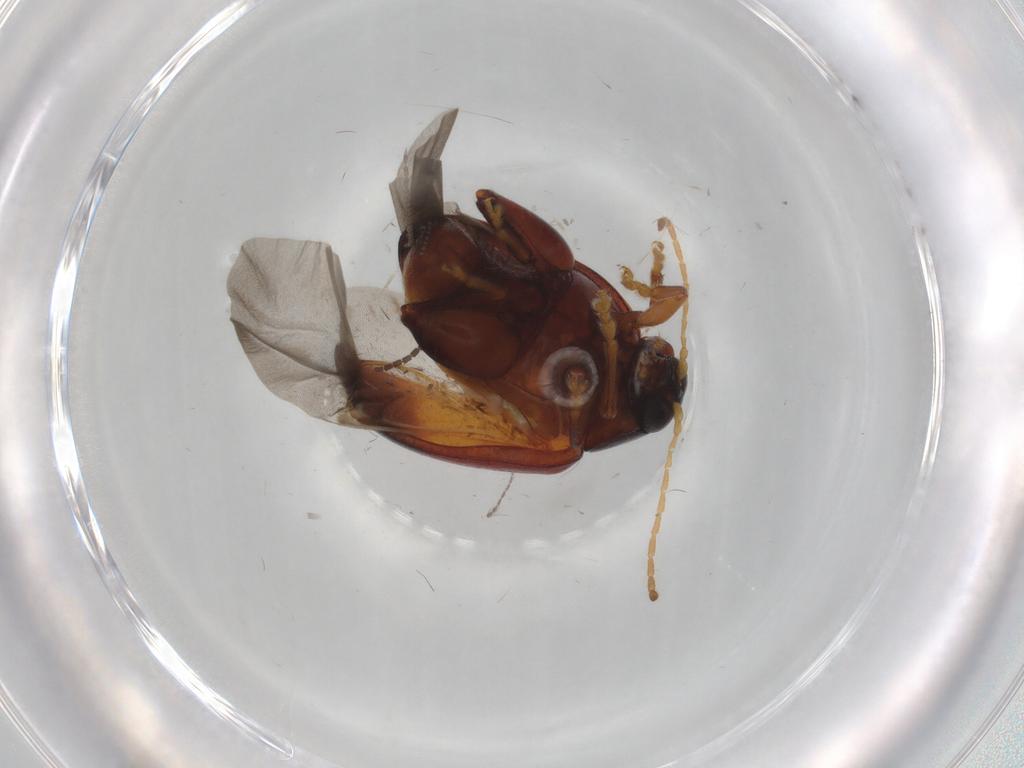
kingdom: Animalia
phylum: Arthropoda
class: Insecta
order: Coleoptera
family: Chrysomelidae
